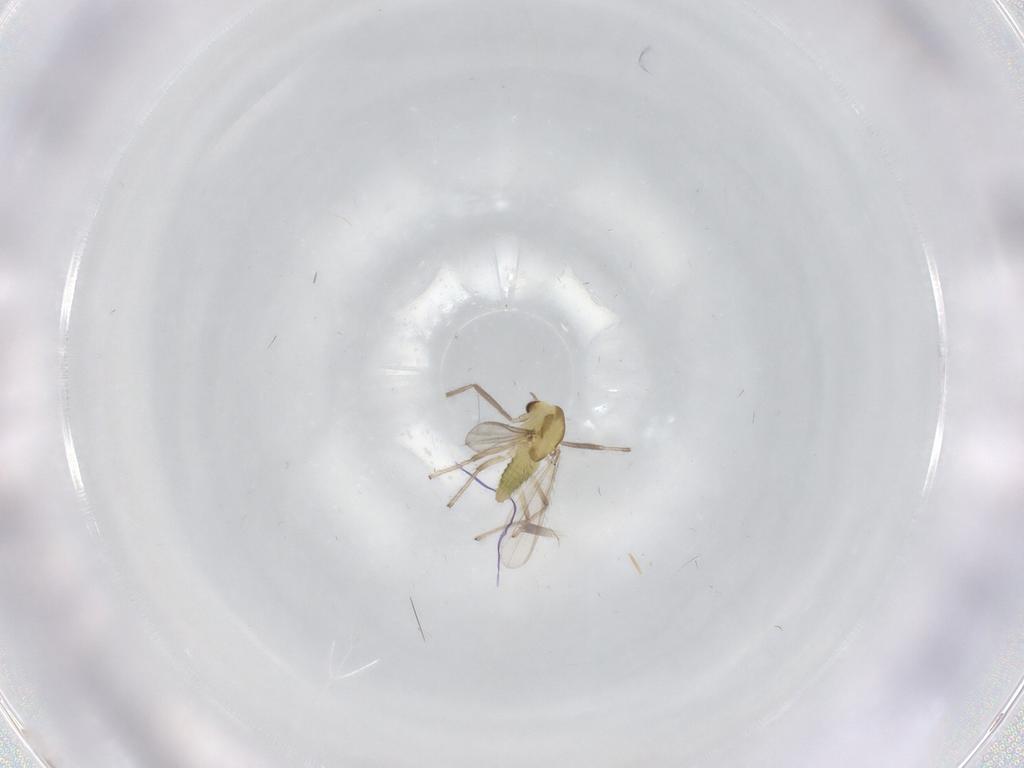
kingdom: Animalia
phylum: Arthropoda
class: Insecta
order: Diptera
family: Chironomidae
